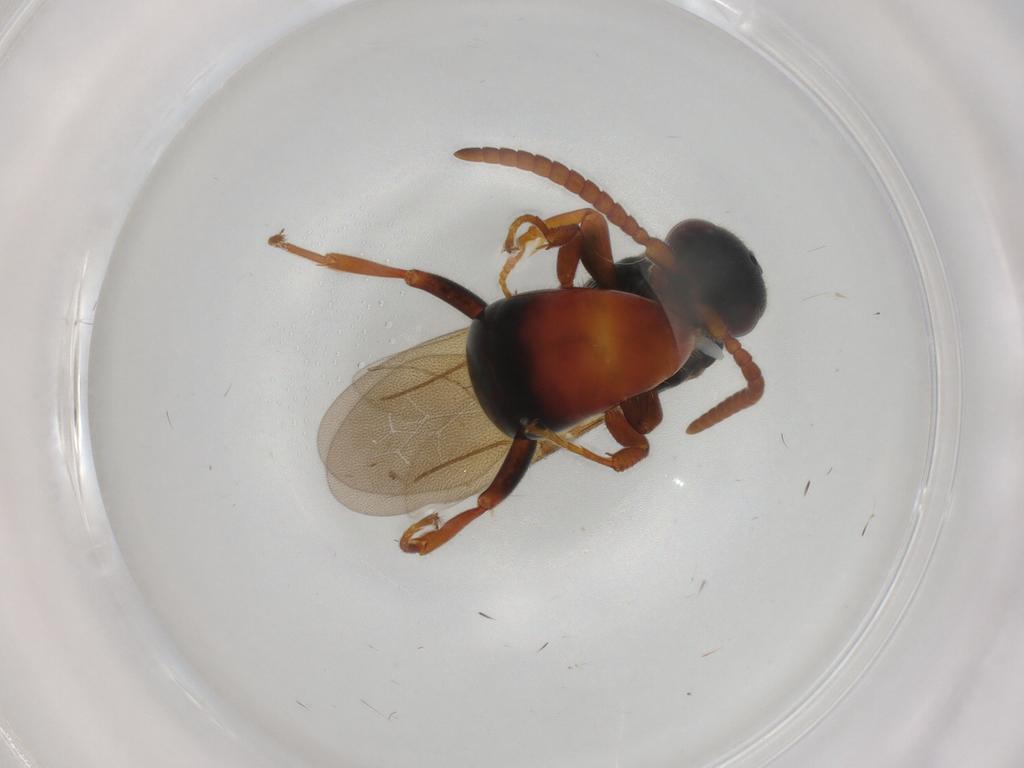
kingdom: Animalia
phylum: Arthropoda
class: Insecta
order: Hymenoptera
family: Bethylidae
